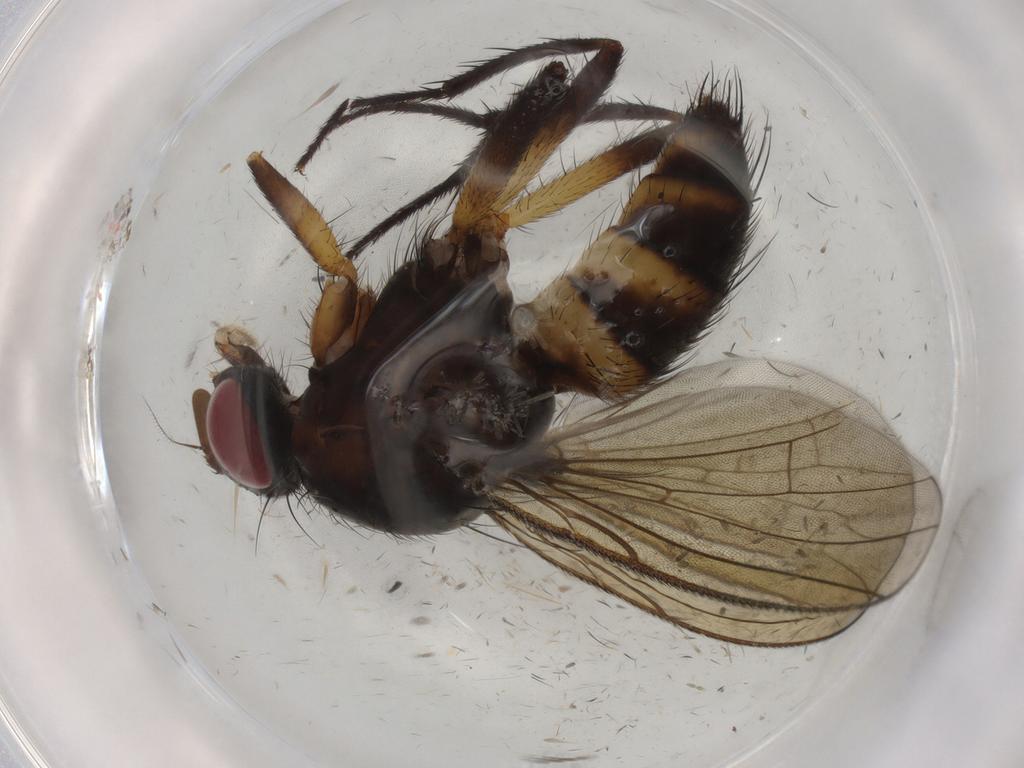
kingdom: Animalia
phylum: Arthropoda
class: Insecta
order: Diptera
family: Anthomyiidae
